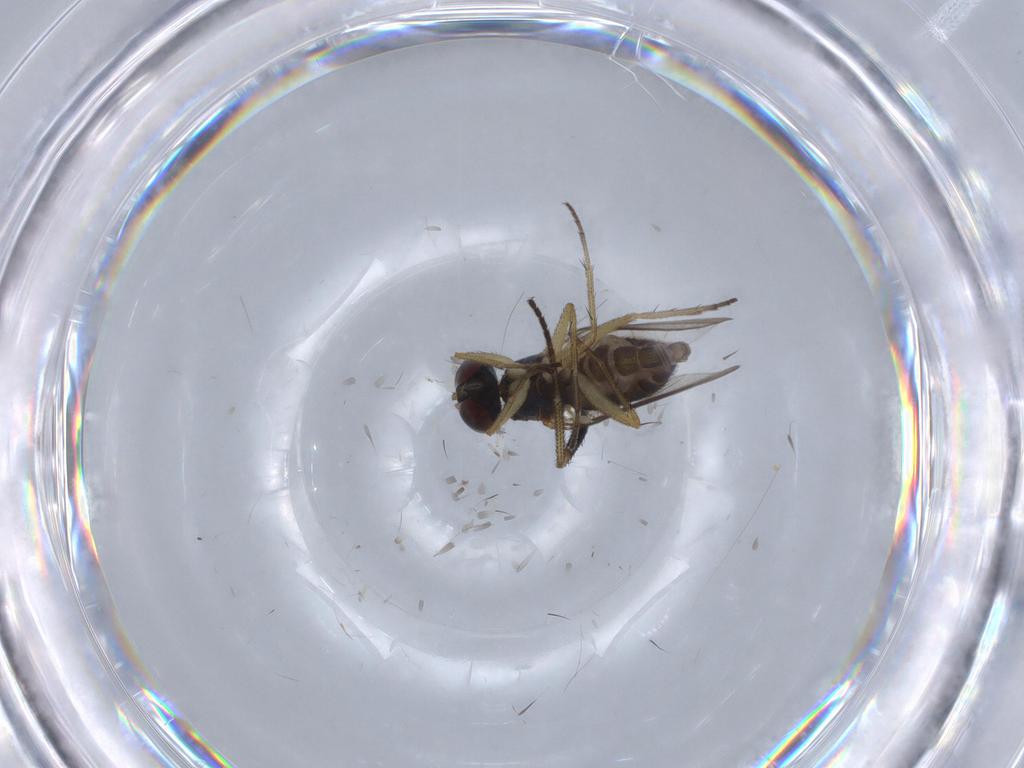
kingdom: Animalia
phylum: Arthropoda
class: Insecta
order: Diptera
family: Dolichopodidae
